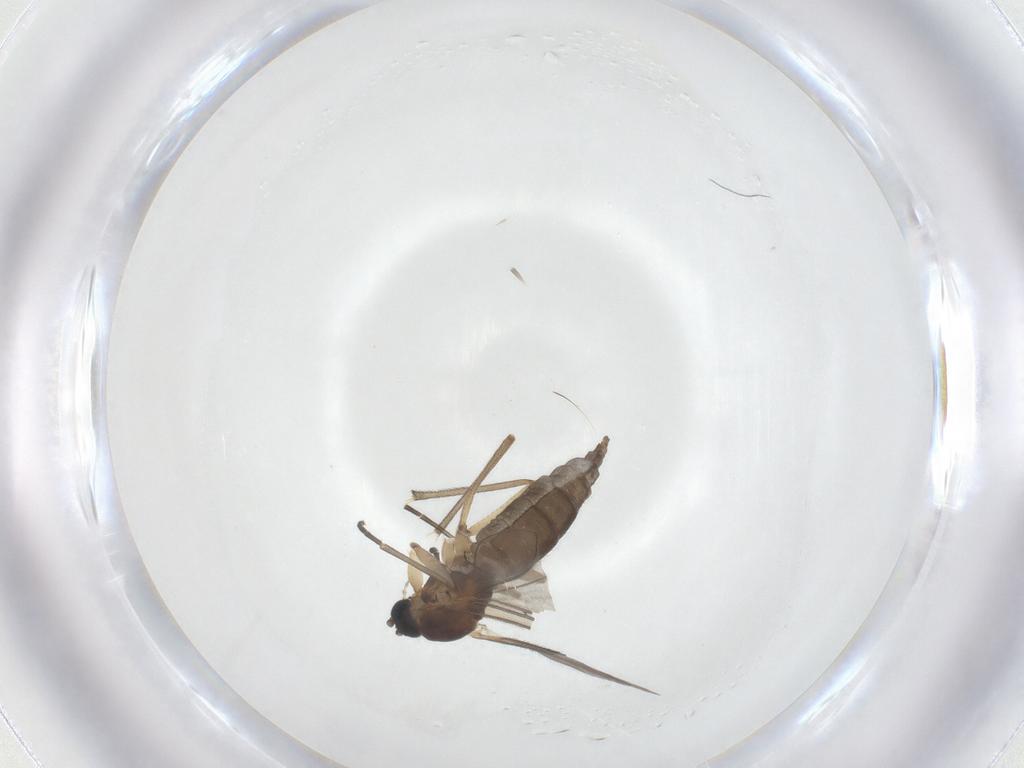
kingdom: Animalia
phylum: Arthropoda
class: Insecta
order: Diptera
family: Sciaridae
